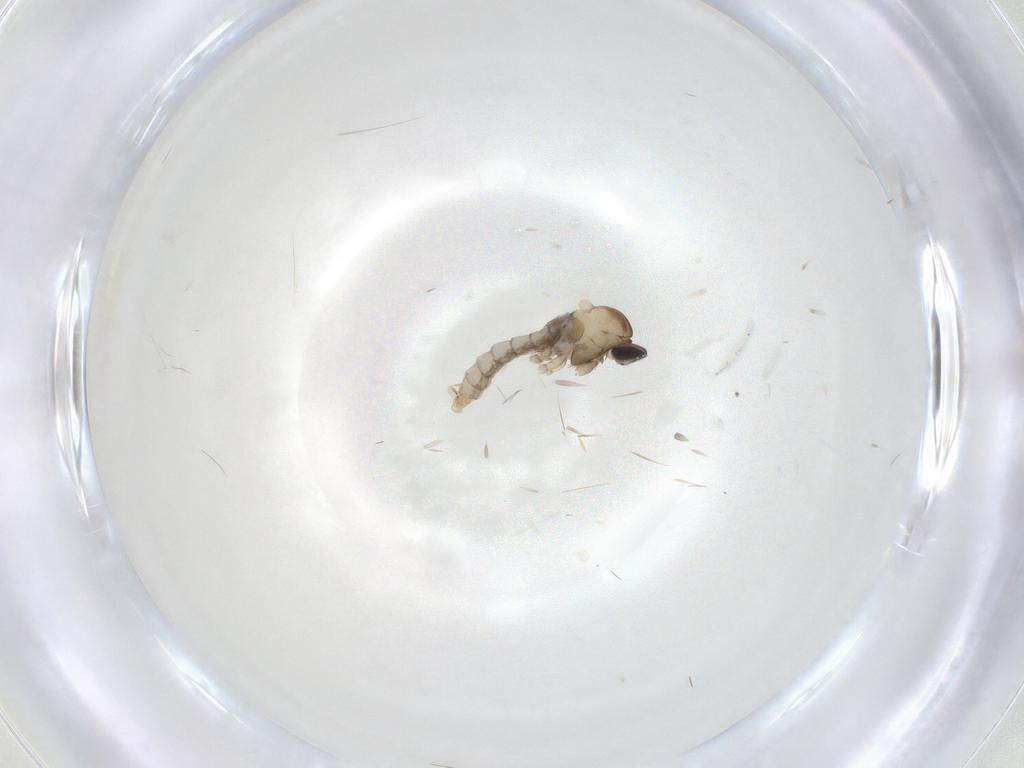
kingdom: Animalia
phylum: Arthropoda
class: Insecta
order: Diptera
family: Cecidomyiidae
